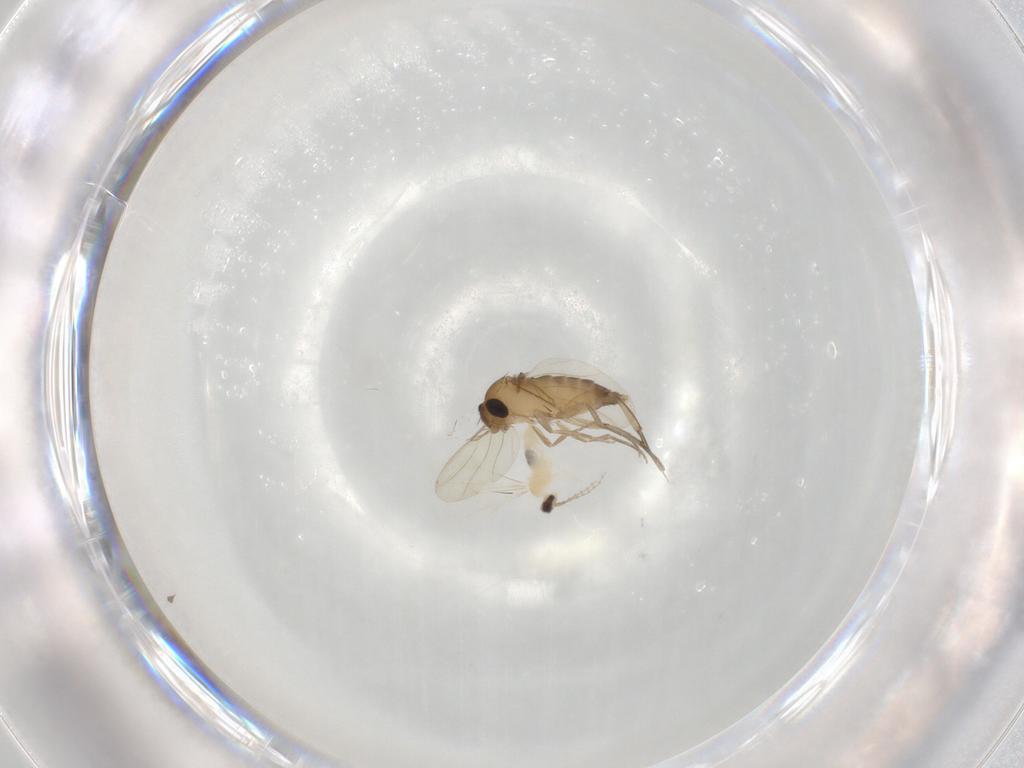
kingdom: Animalia
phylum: Arthropoda
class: Insecta
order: Diptera
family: Phoridae
